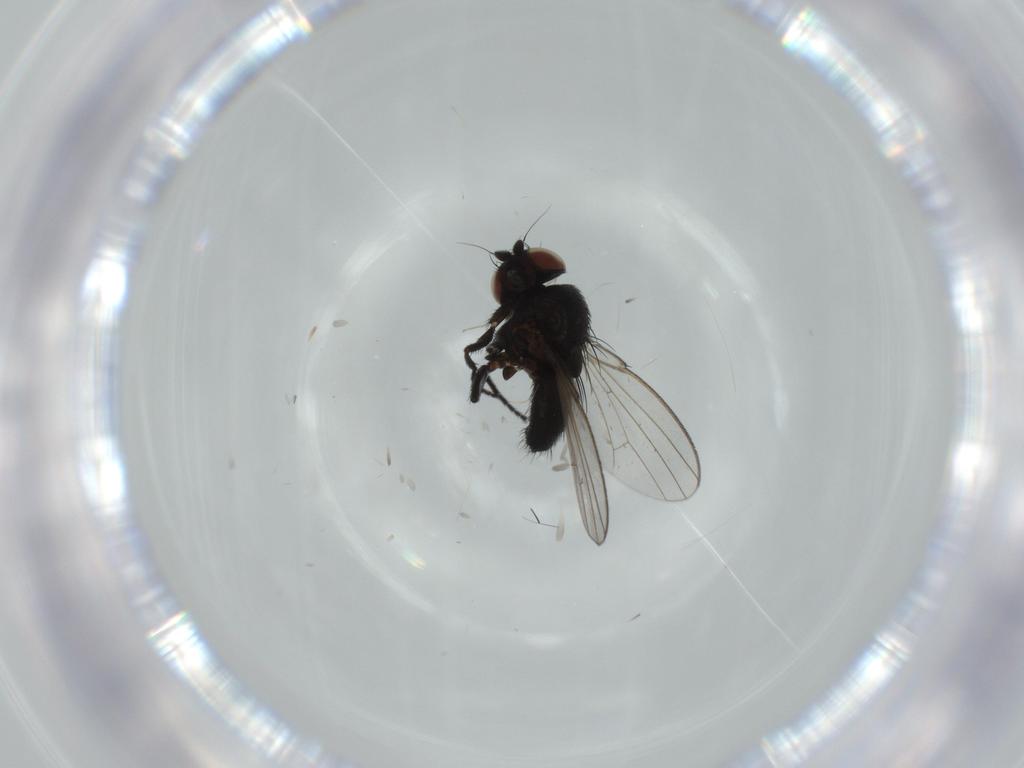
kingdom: Animalia
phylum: Arthropoda
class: Insecta
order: Diptera
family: Milichiidae
